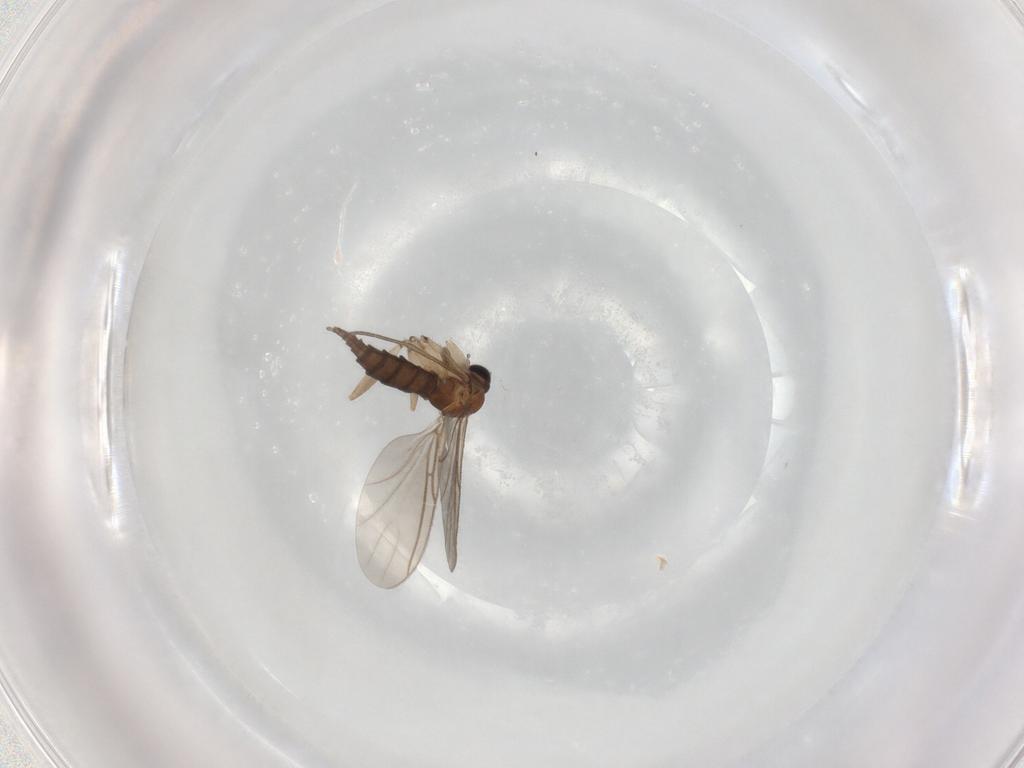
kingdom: Animalia
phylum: Arthropoda
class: Insecta
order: Diptera
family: Sciaridae
